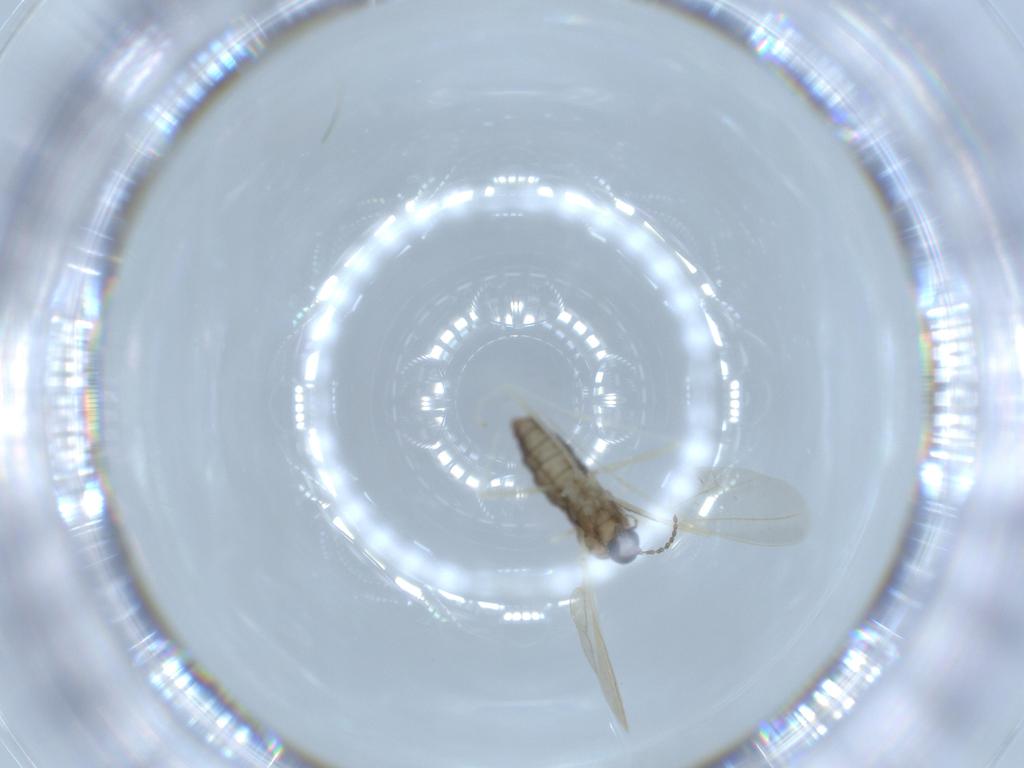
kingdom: Animalia
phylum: Arthropoda
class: Insecta
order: Diptera
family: Cecidomyiidae
